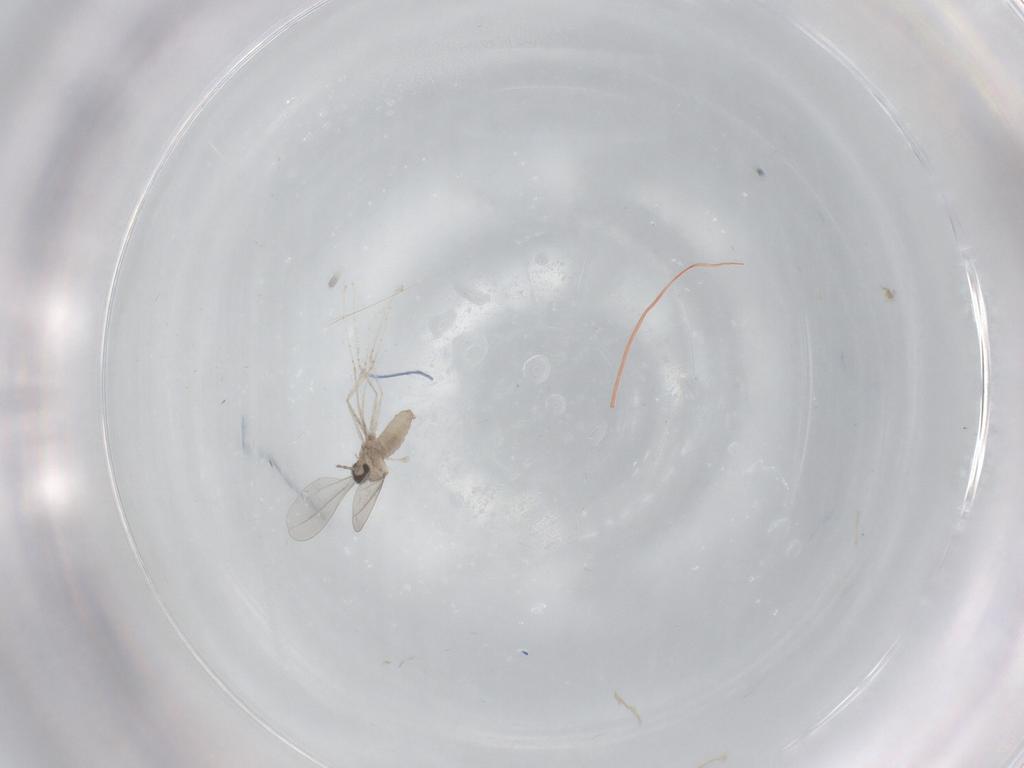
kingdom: Animalia
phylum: Arthropoda
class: Insecta
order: Diptera
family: Cecidomyiidae
